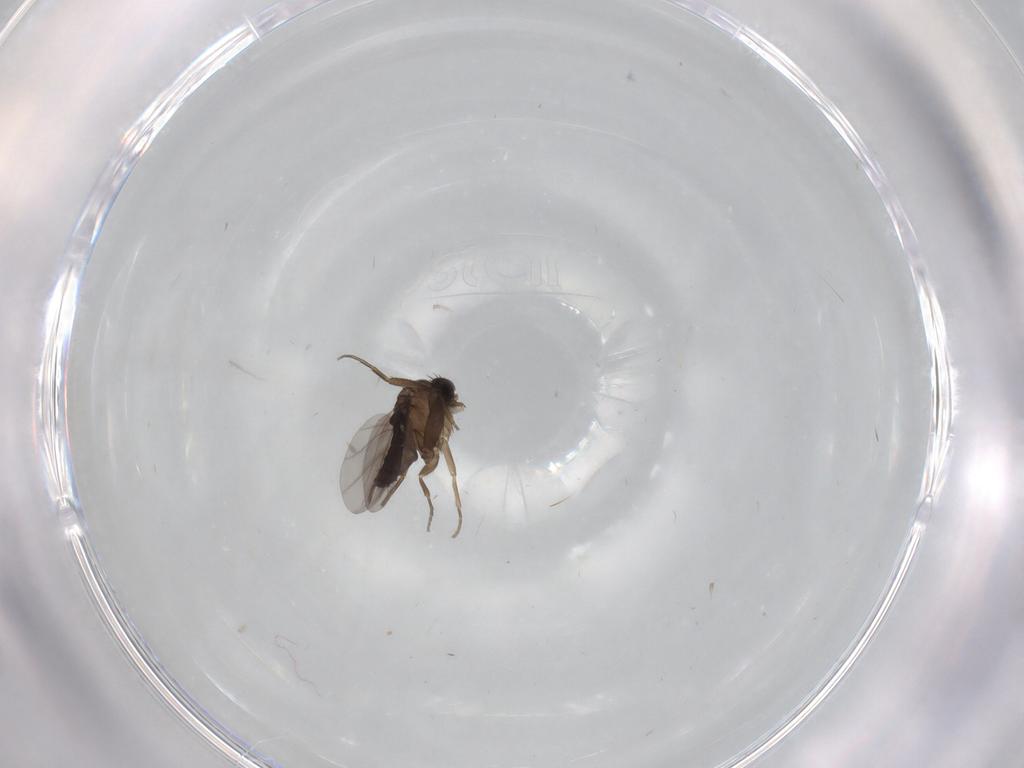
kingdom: Animalia
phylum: Arthropoda
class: Insecta
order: Diptera
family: Phoridae
